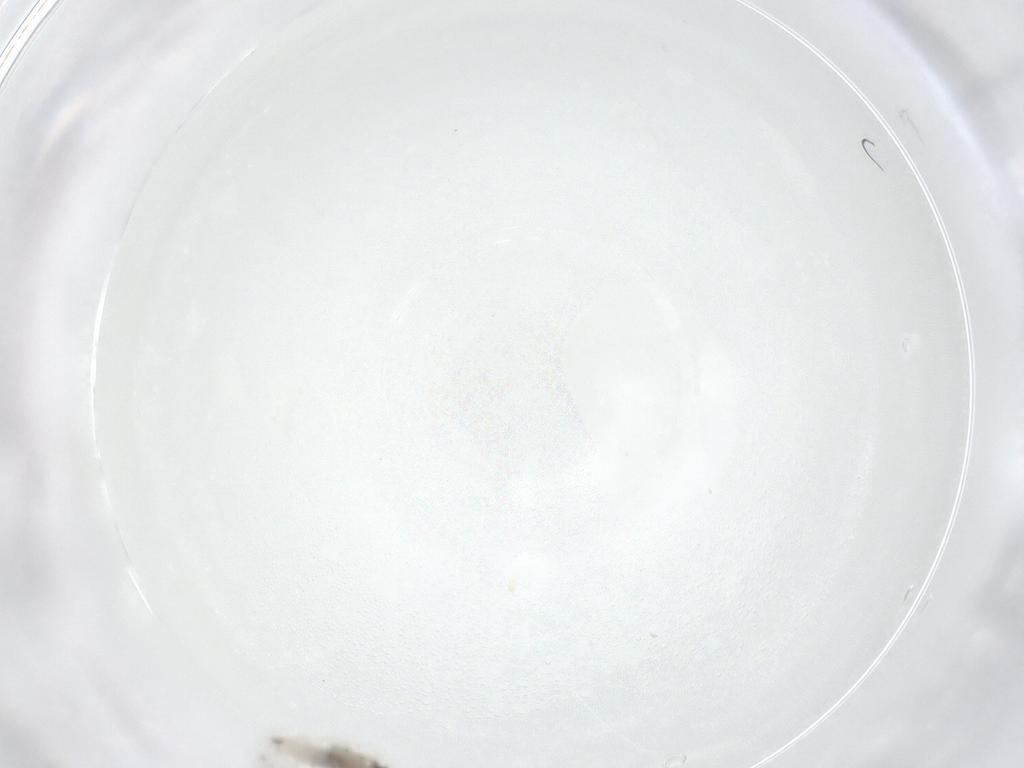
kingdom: Animalia
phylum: Arthropoda
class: Insecta
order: Diptera
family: Cecidomyiidae
